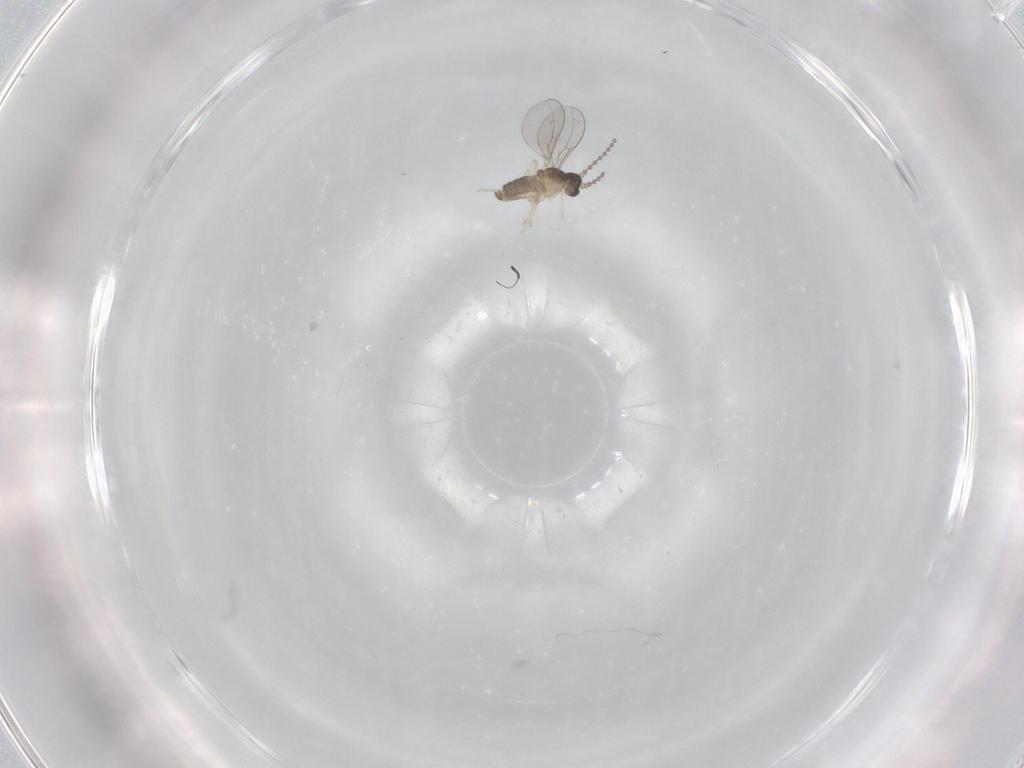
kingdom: Animalia
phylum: Arthropoda
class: Insecta
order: Diptera
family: Cecidomyiidae
